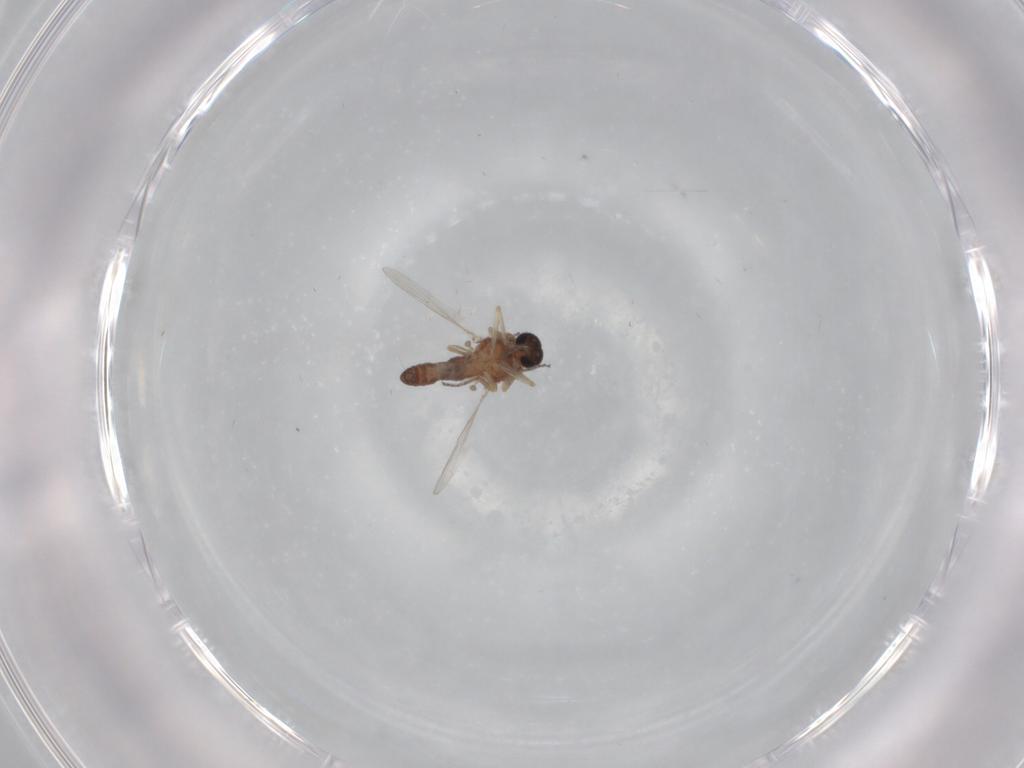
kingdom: Animalia
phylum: Arthropoda
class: Insecta
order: Diptera
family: Ceratopogonidae
